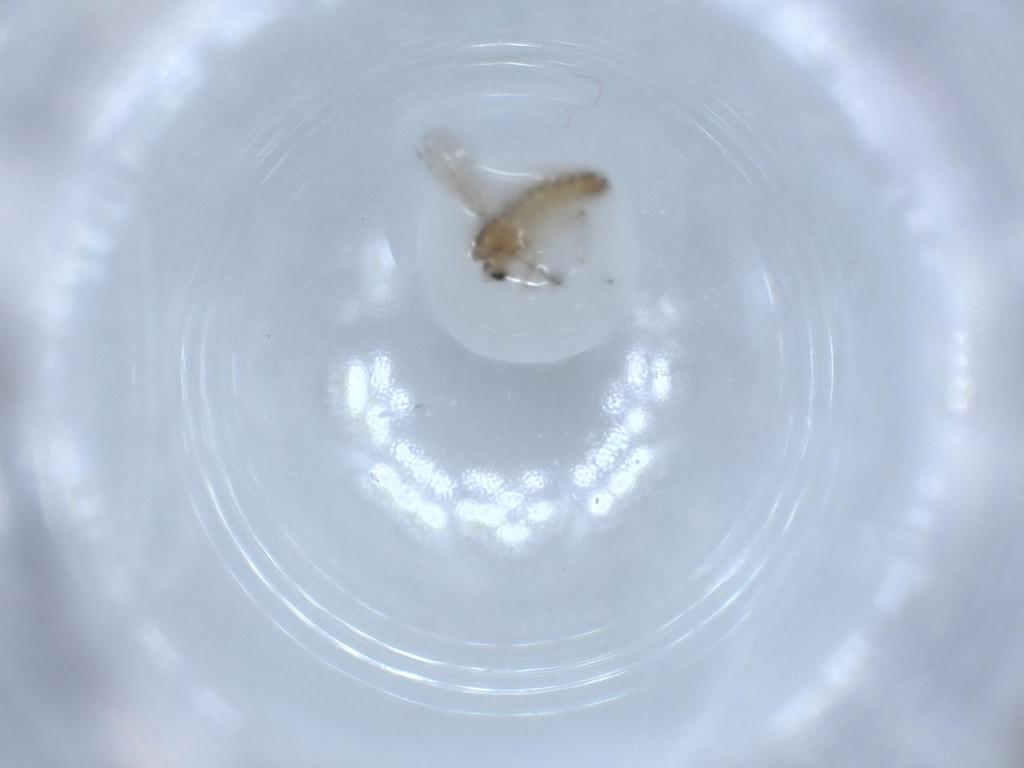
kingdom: Animalia
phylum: Arthropoda
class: Insecta
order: Diptera
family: Chironomidae
